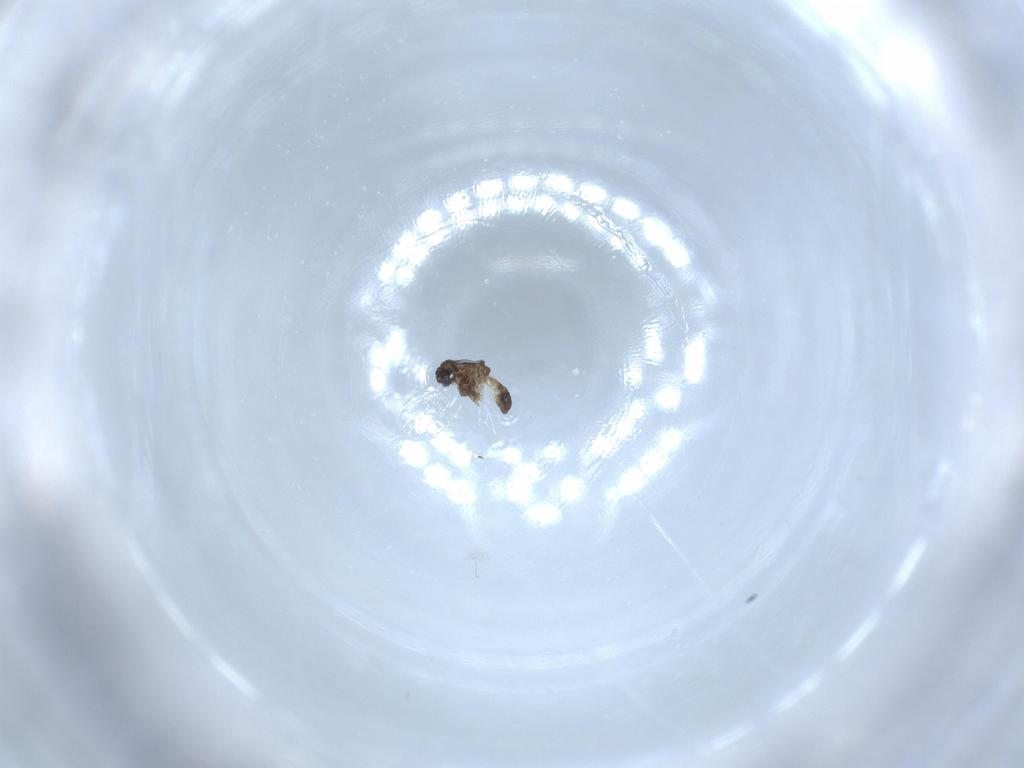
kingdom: Animalia
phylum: Arthropoda
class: Insecta
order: Diptera
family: Chironomidae
